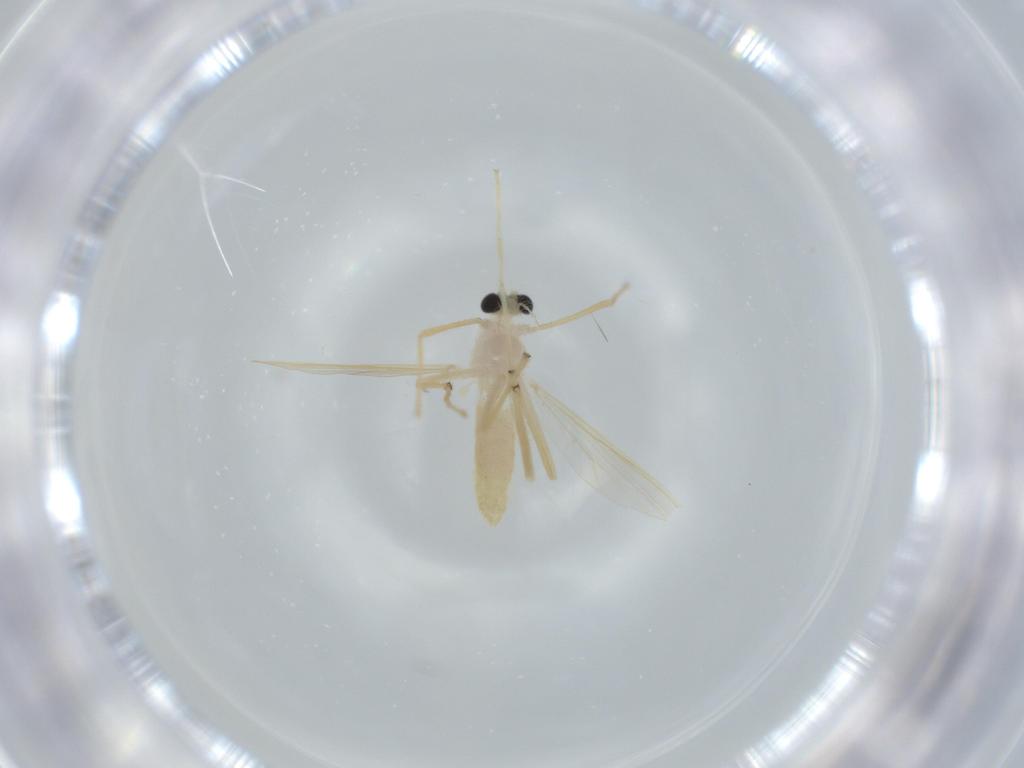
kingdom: Animalia
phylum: Arthropoda
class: Insecta
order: Diptera
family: Chironomidae
